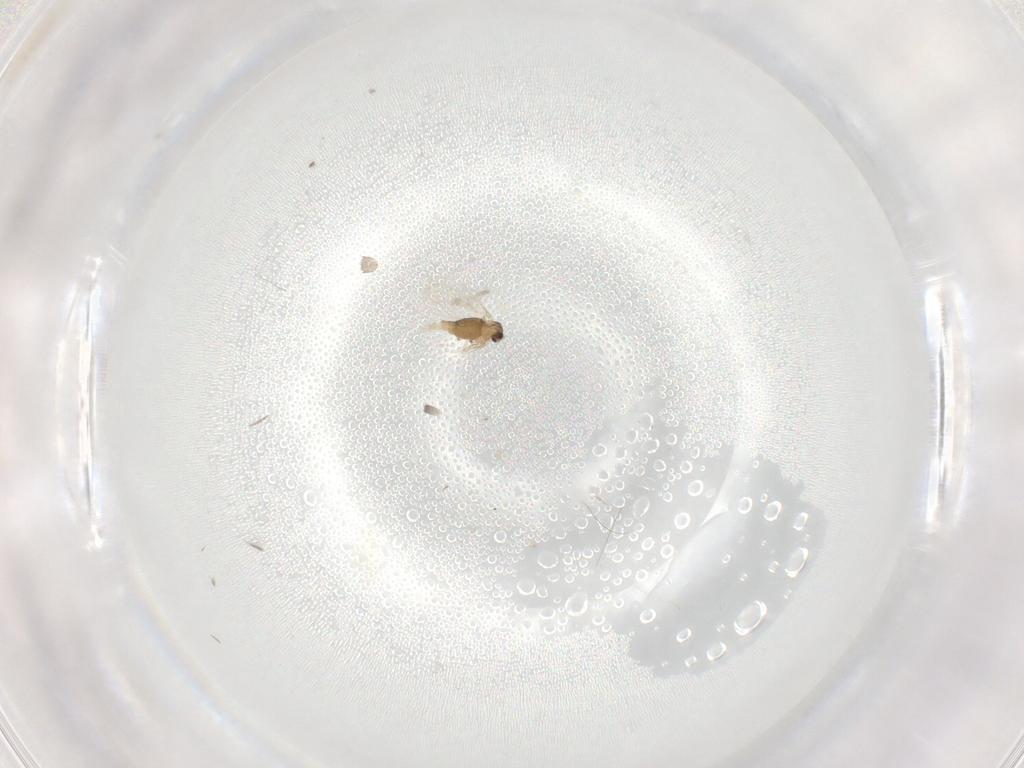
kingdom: Animalia
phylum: Arthropoda
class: Insecta
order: Diptera
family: Cecidomyiidae
